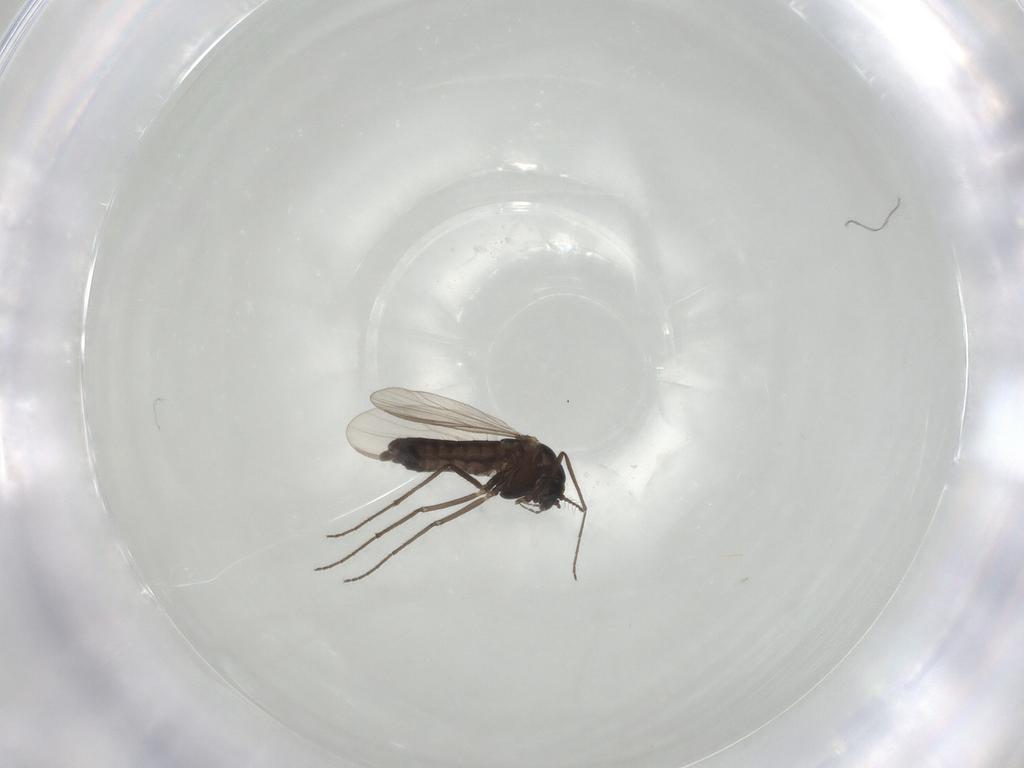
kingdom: Animalia
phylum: Arthropoda
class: Insecta
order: Diptera
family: Chironomidae
